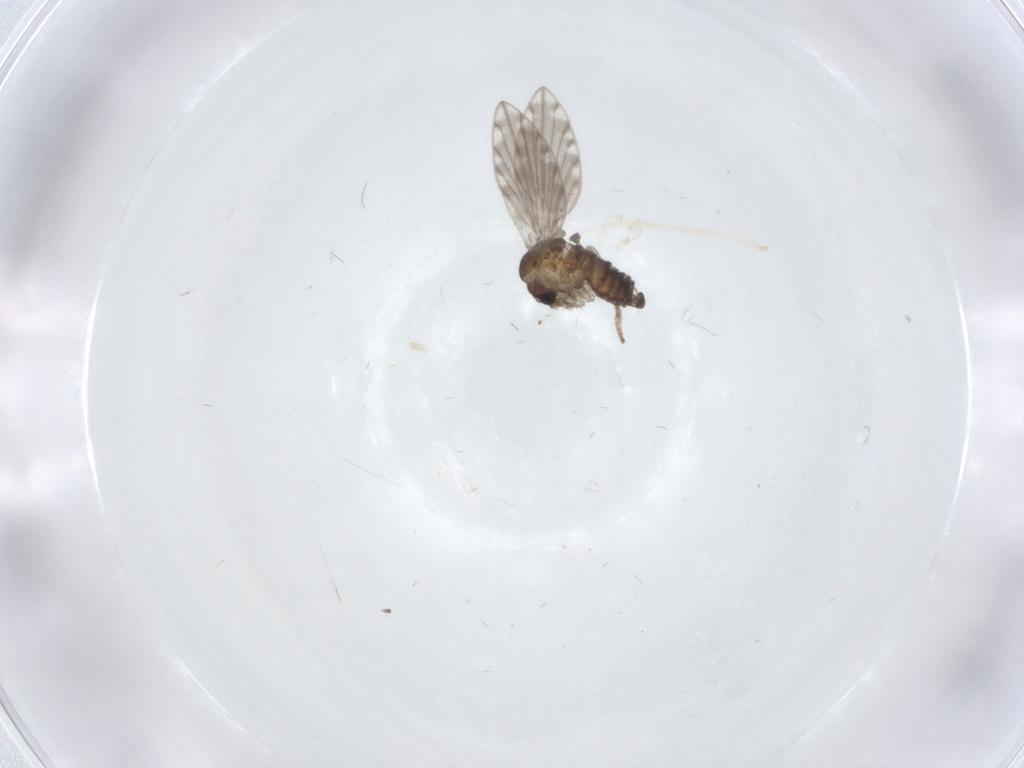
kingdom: Animalia
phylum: Arthropoda
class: Insecta
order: Diptera
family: Psychodidae
